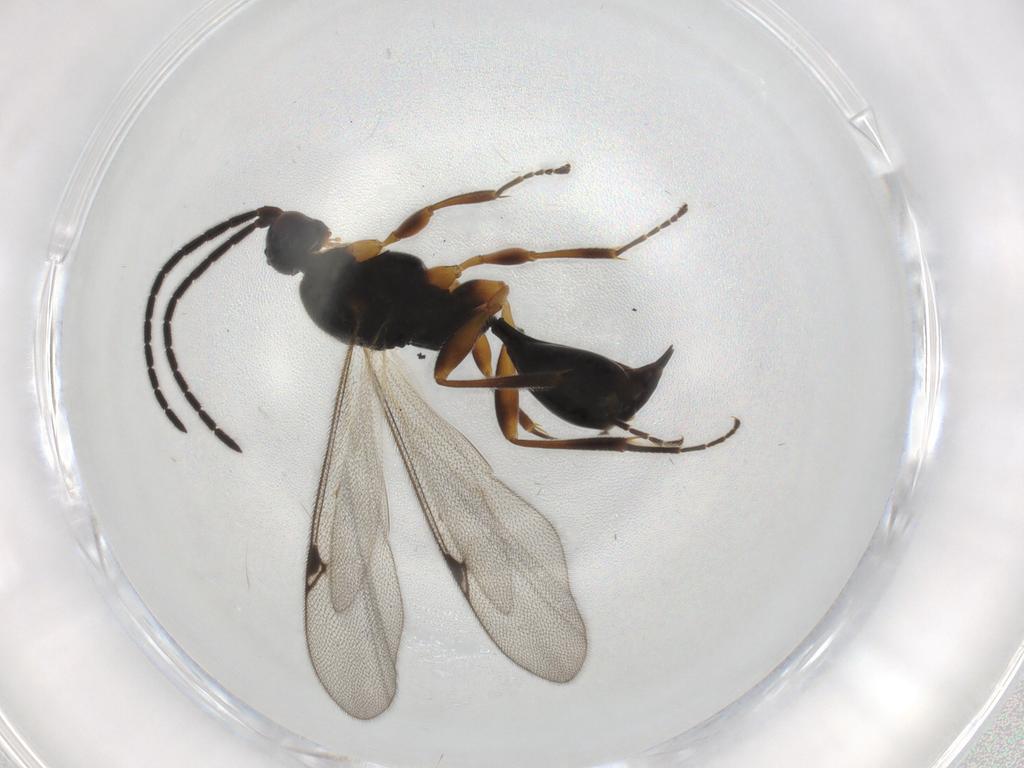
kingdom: Animalia
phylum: Arthropoda
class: Insecta
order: Hymenoptera
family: Proctotrupidae
